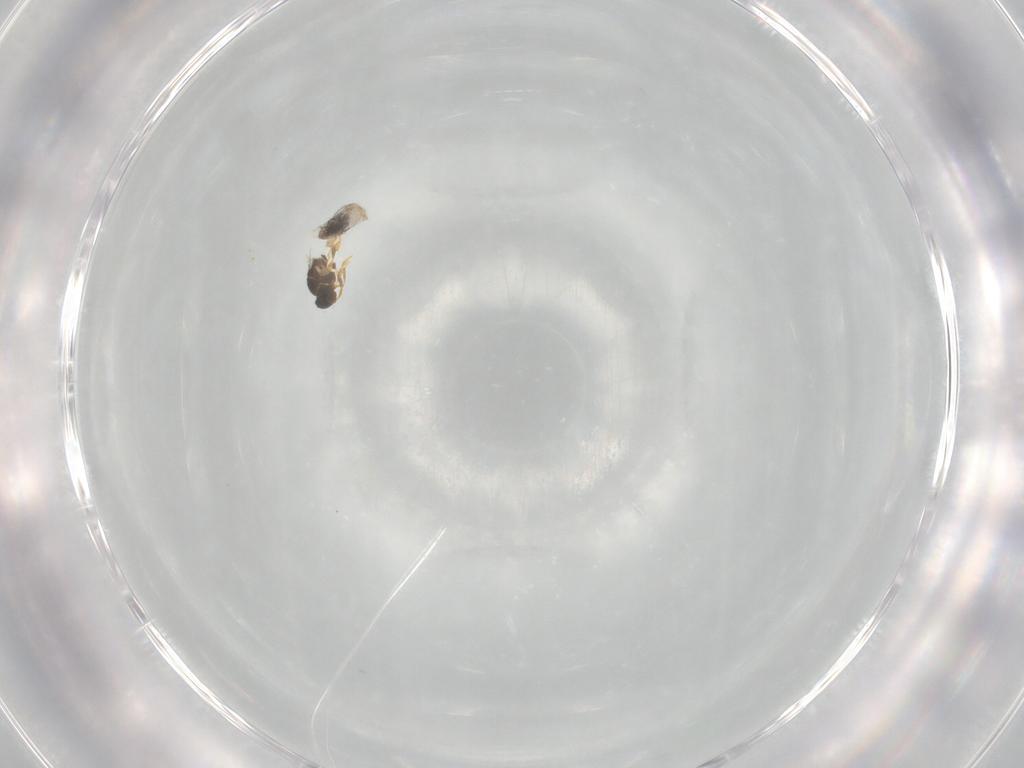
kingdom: Animalia
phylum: Arthropoda
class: Insecta
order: Hymenoptera
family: Platygastridae
